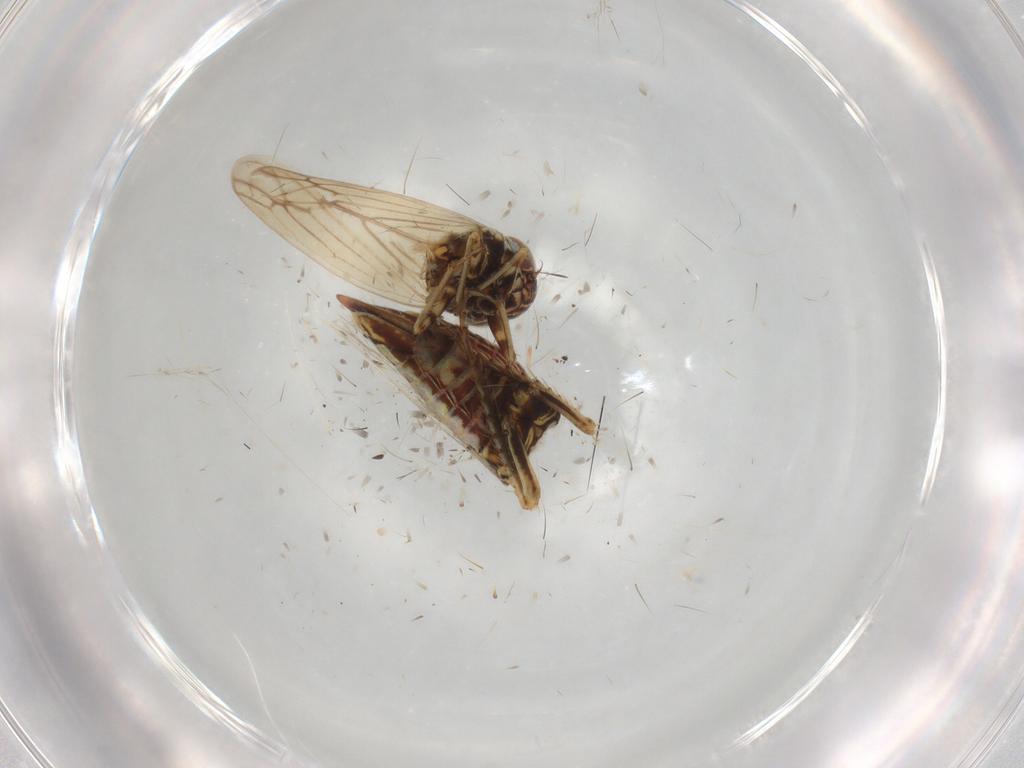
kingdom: Animalia
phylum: Arthropoda
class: Insecta
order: Hemiptera
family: Cicadellidae
